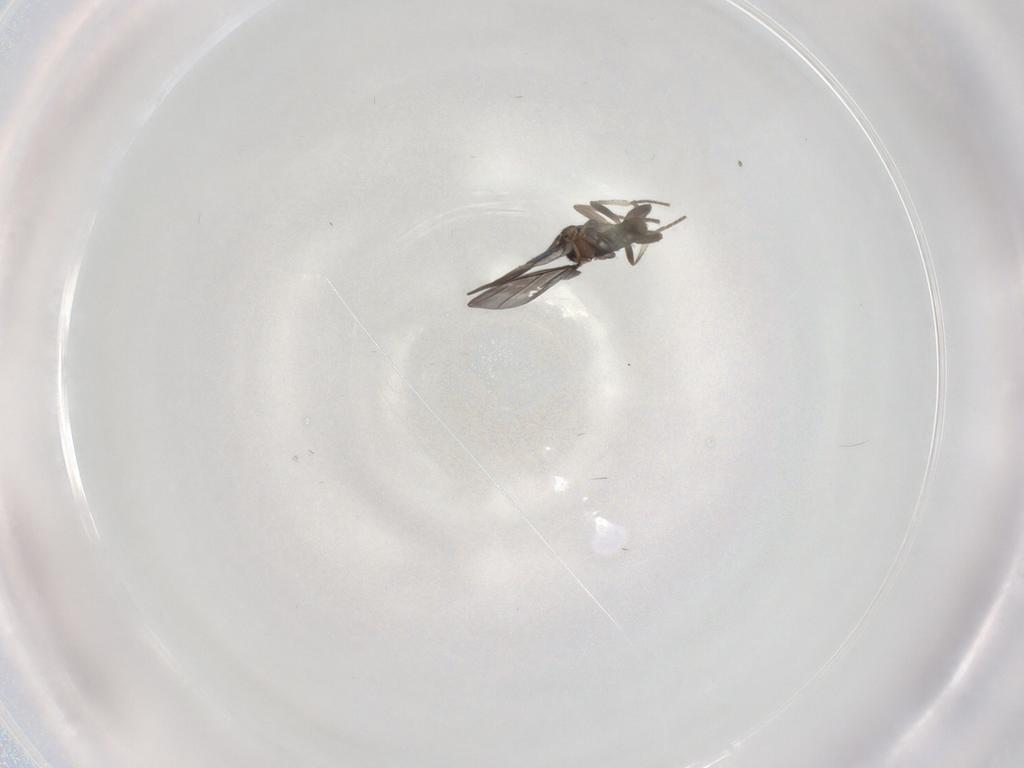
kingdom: Animalia
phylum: Arthropoda
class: Insecta
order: Diptera
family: Phoridae
